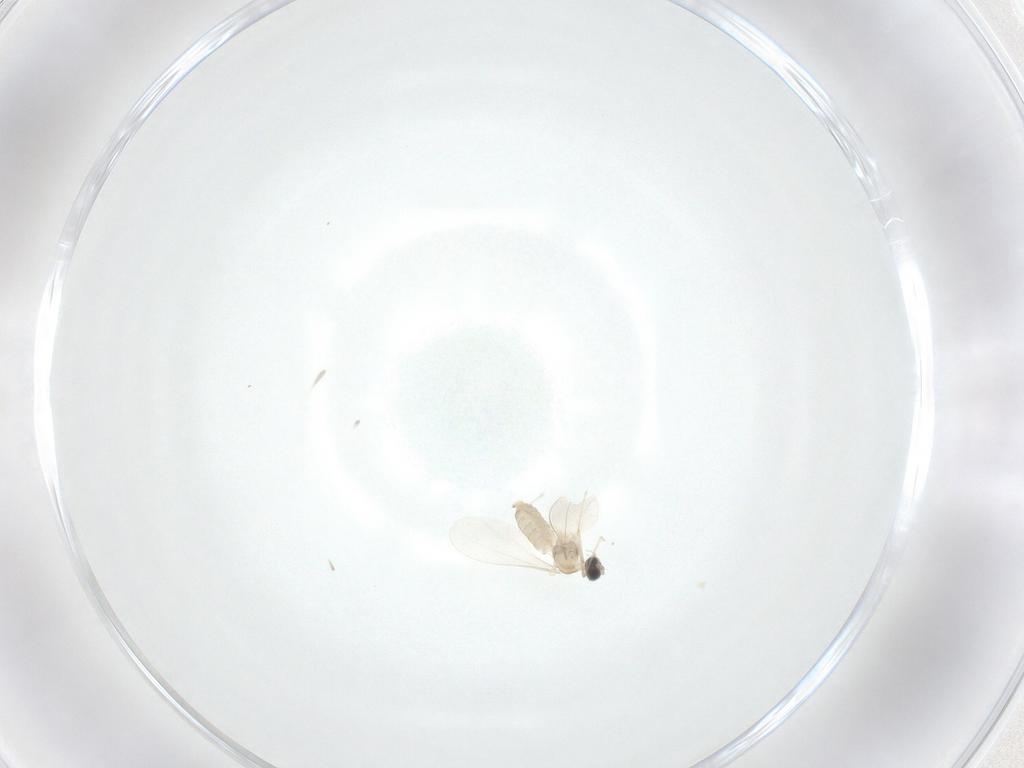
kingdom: Animalia
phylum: Arthropoda
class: Insecta
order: Diptera
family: Cecidomyiidae
